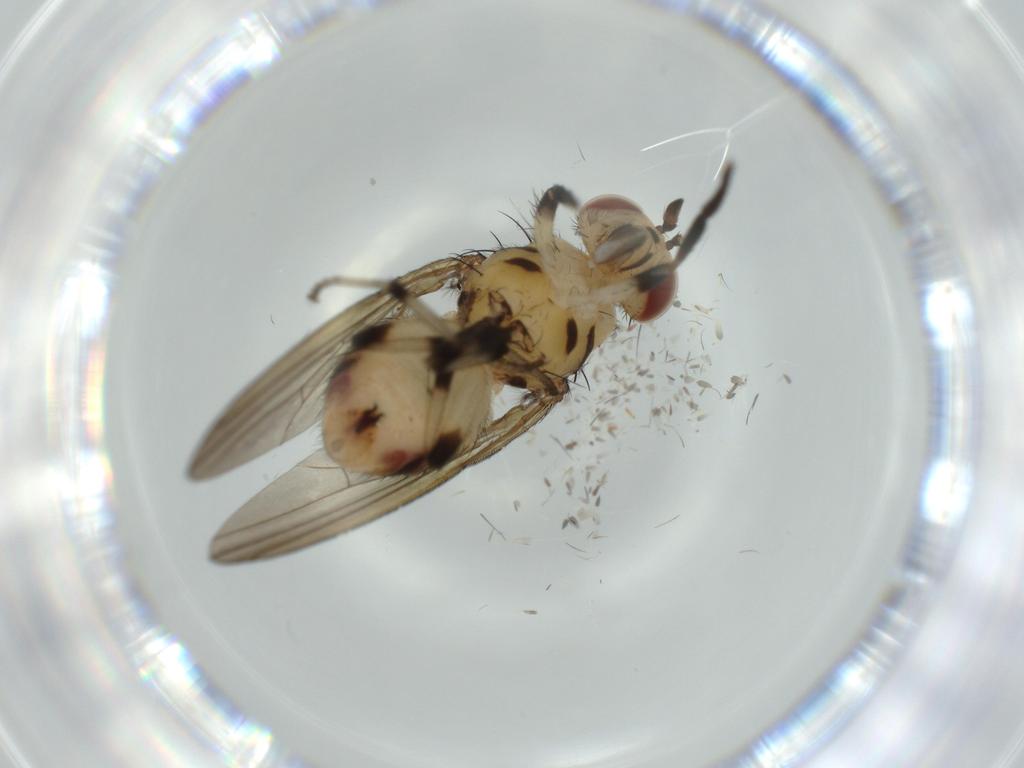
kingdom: Animalia
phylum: Arthropoda
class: Insecta
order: Diptera
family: Lauxaniidae
